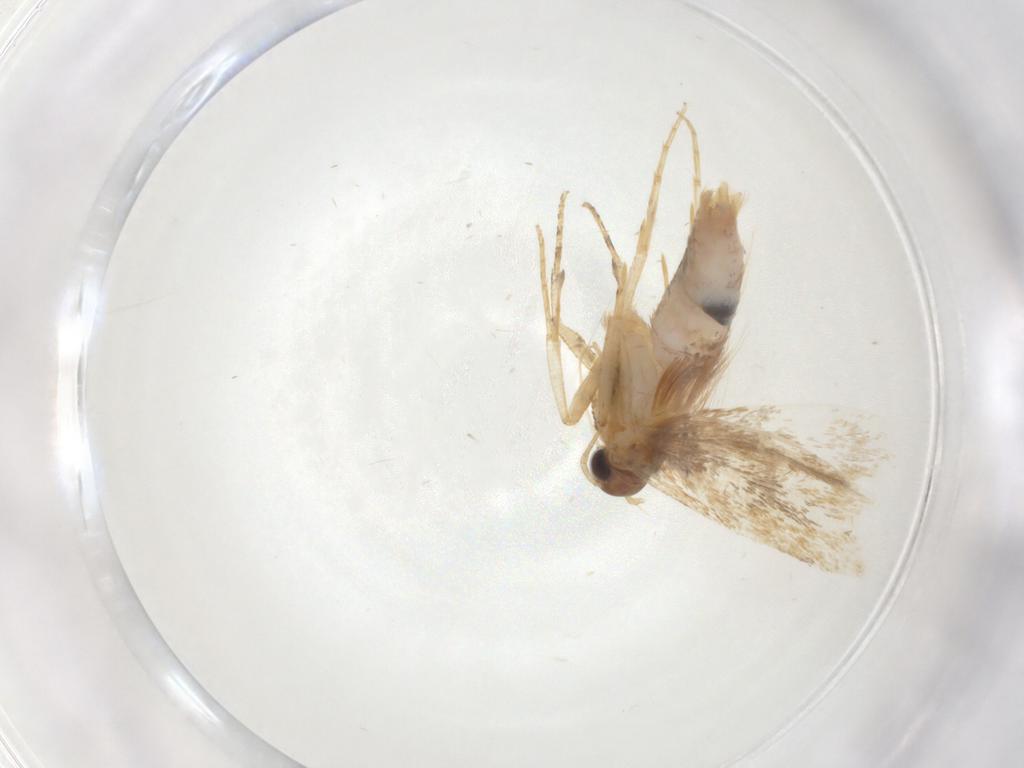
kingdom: Animalia
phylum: Arthropoda
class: Insecta
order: Lepidoptera
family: Gelechiidae
